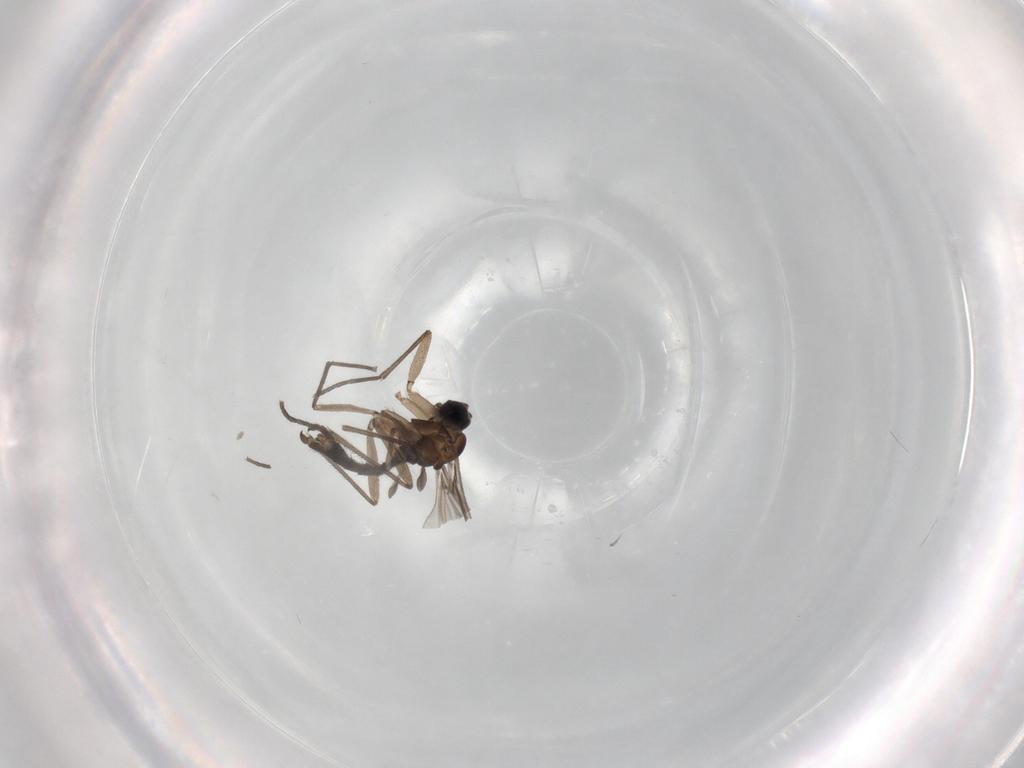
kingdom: Animalia
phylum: Arthropoda
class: Insecta
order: Diptera
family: Sciaridae
